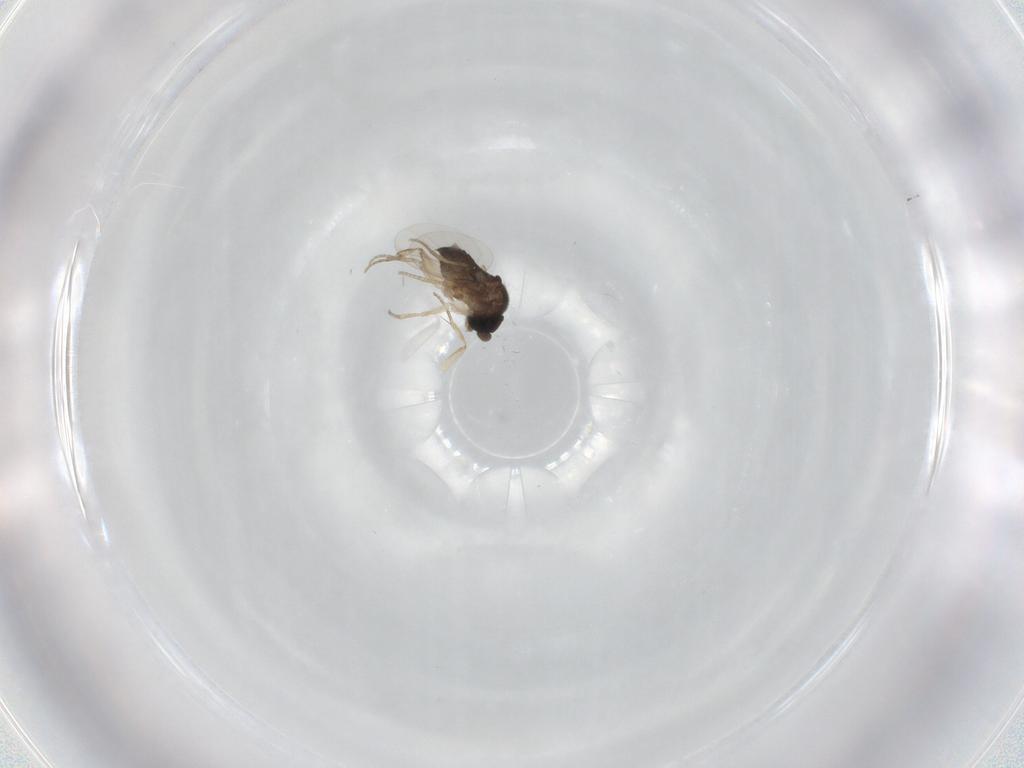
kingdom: Animalia
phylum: Arthropoda
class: Insecta
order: Diptera
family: Phoridae
